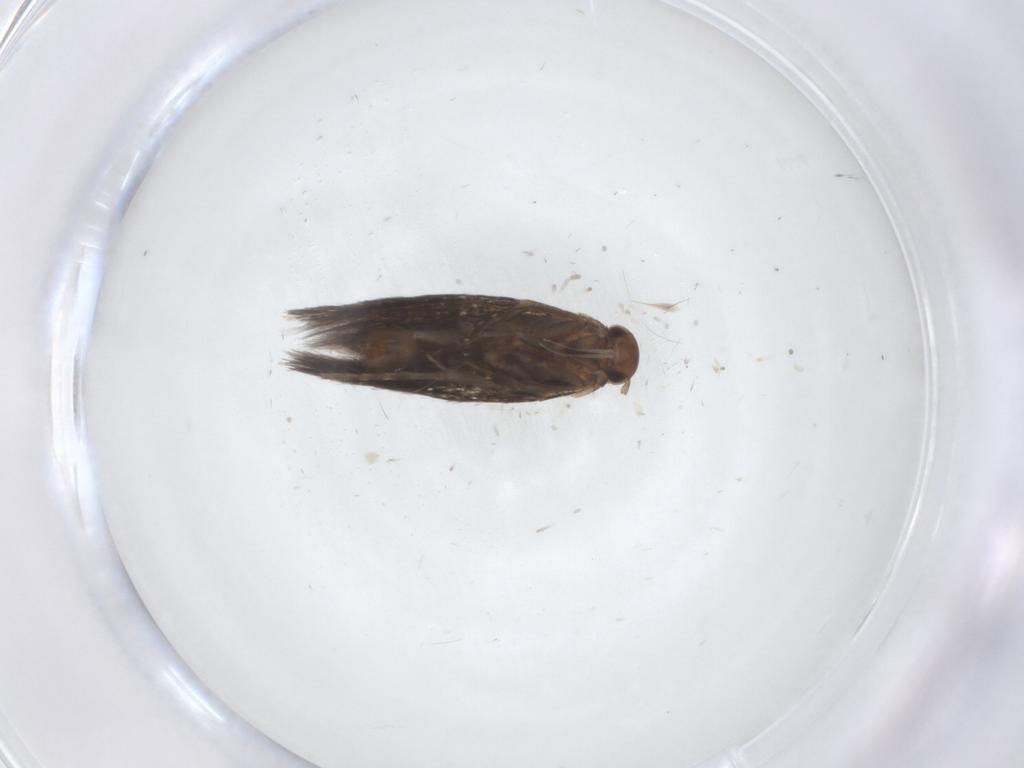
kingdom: Animalia
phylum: Arthropoda
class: Insecta
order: Lepidoptera
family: Elachistidae
